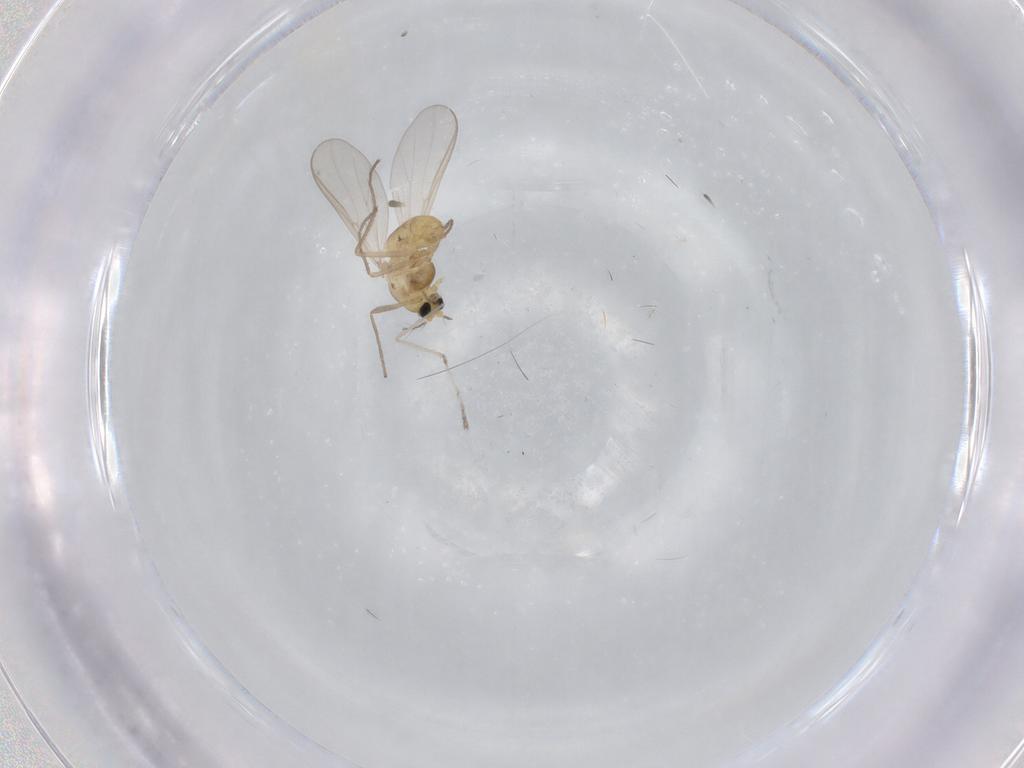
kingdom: Animalia
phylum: Arthropoda
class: Insecta
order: Diptera
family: Chironomidae
